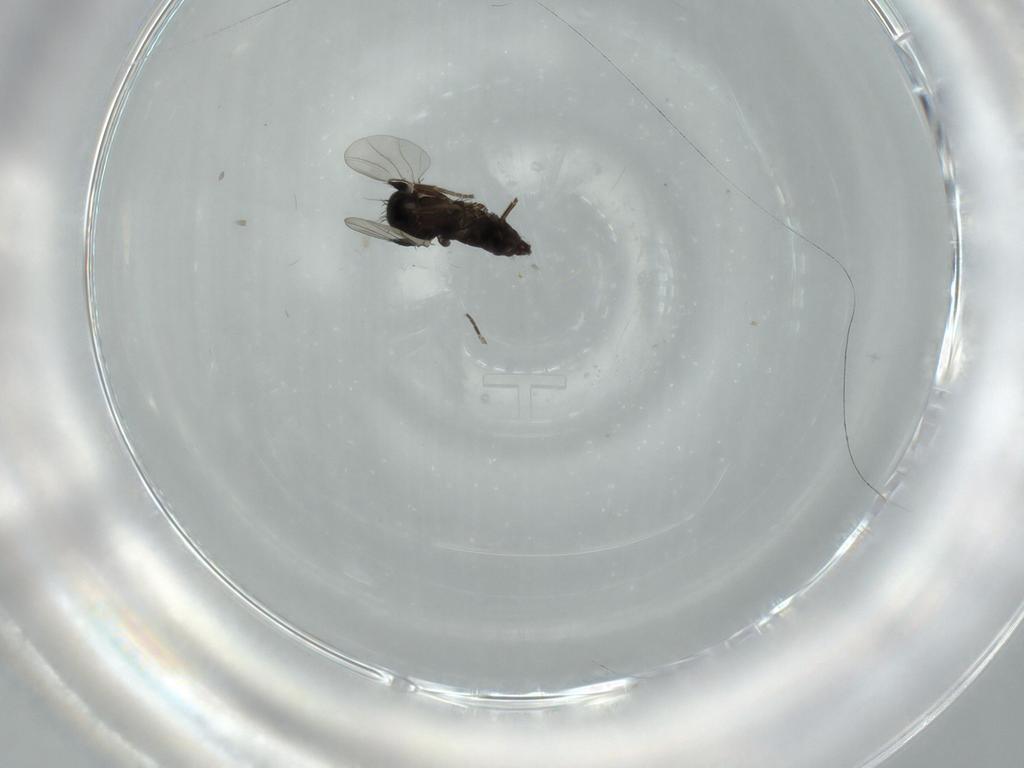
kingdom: Animalia
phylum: Arthropoda
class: Insecta
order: Diptera
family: Phoridae
